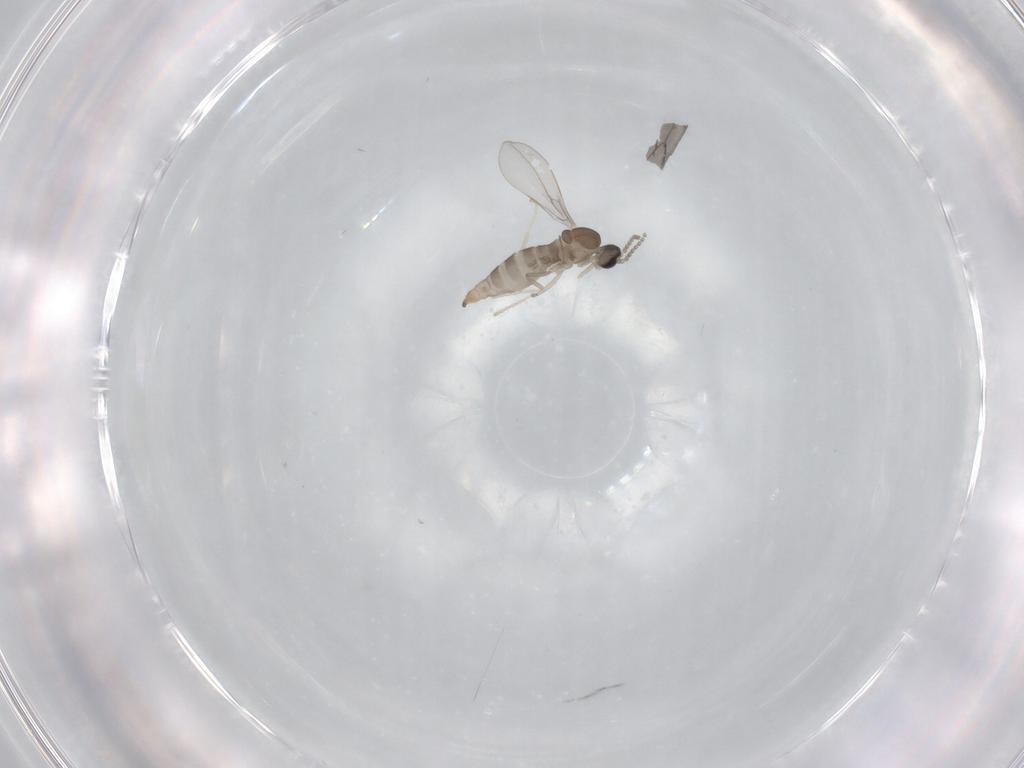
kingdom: Animalia
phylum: Arthropoda
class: Insecta
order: Diptera
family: Cecidomyiidae
